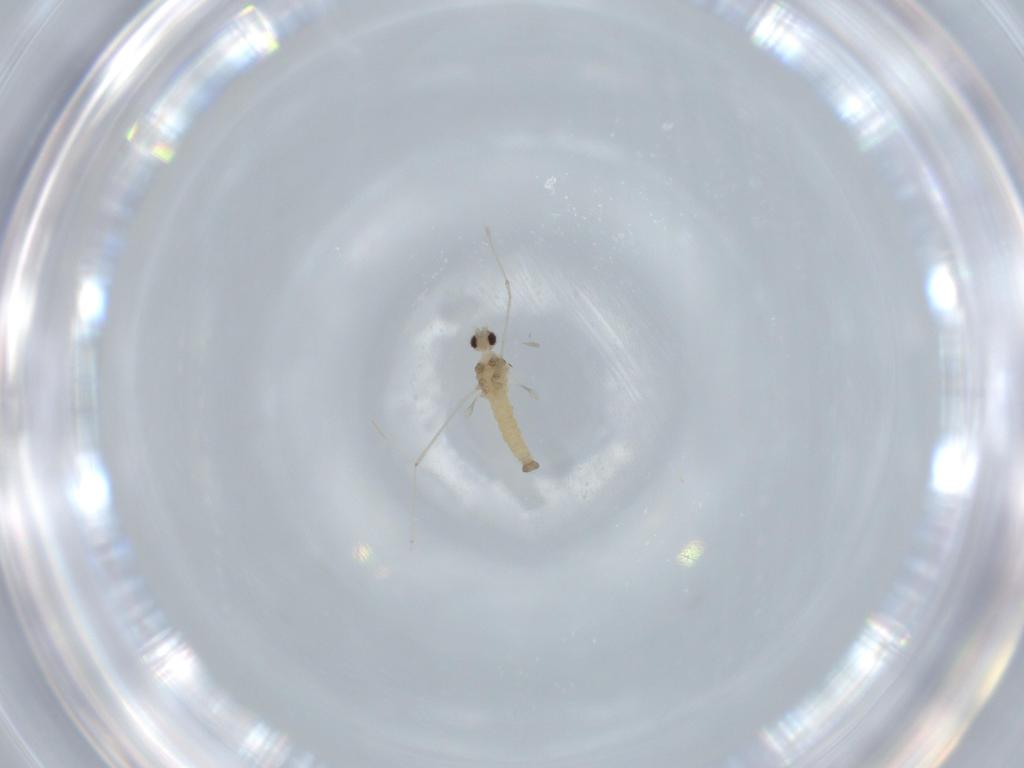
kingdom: Animalia
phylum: Arthropoda
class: Insecta
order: Diptera
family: Cecidomyiidae
